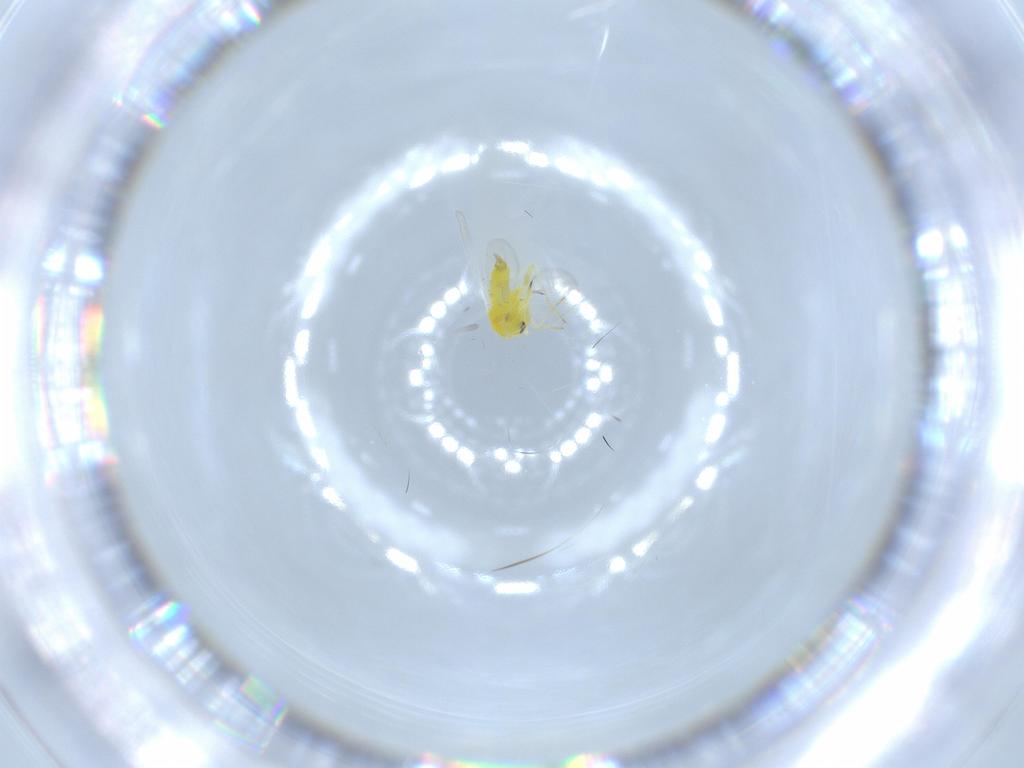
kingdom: Animalia
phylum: Arthropoda
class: Insecta
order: Hemiptera
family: Aleyrodidae
